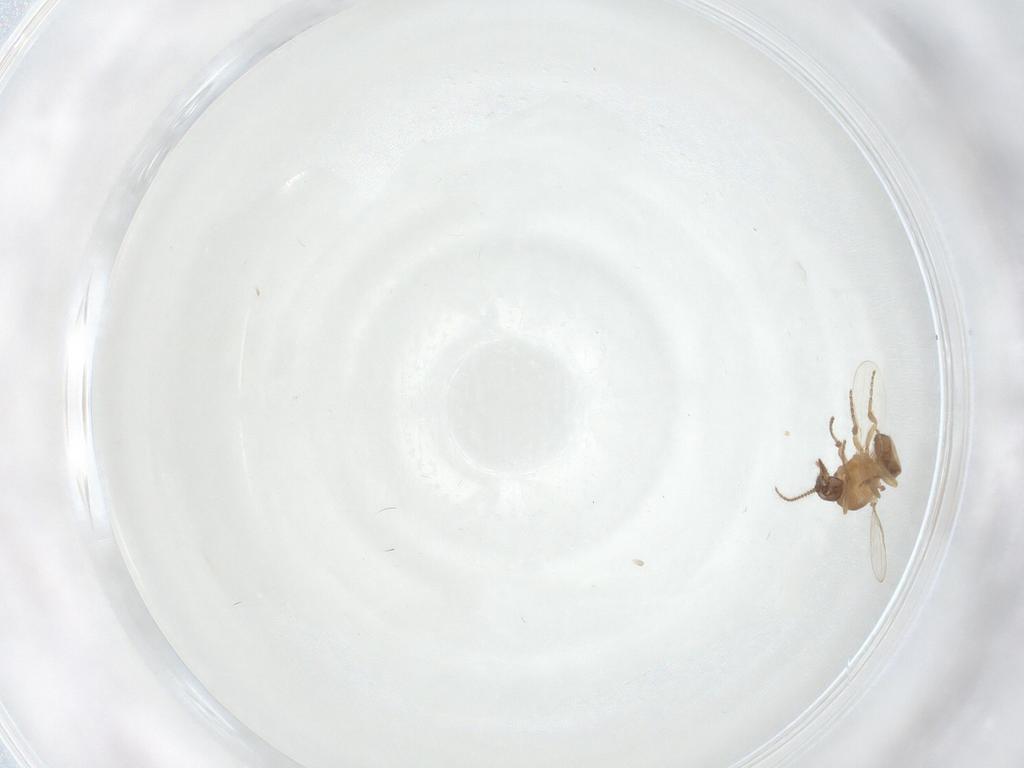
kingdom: Animalia
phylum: Arthropoda
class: Insecta
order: Diptera
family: Ceratopogonidae
